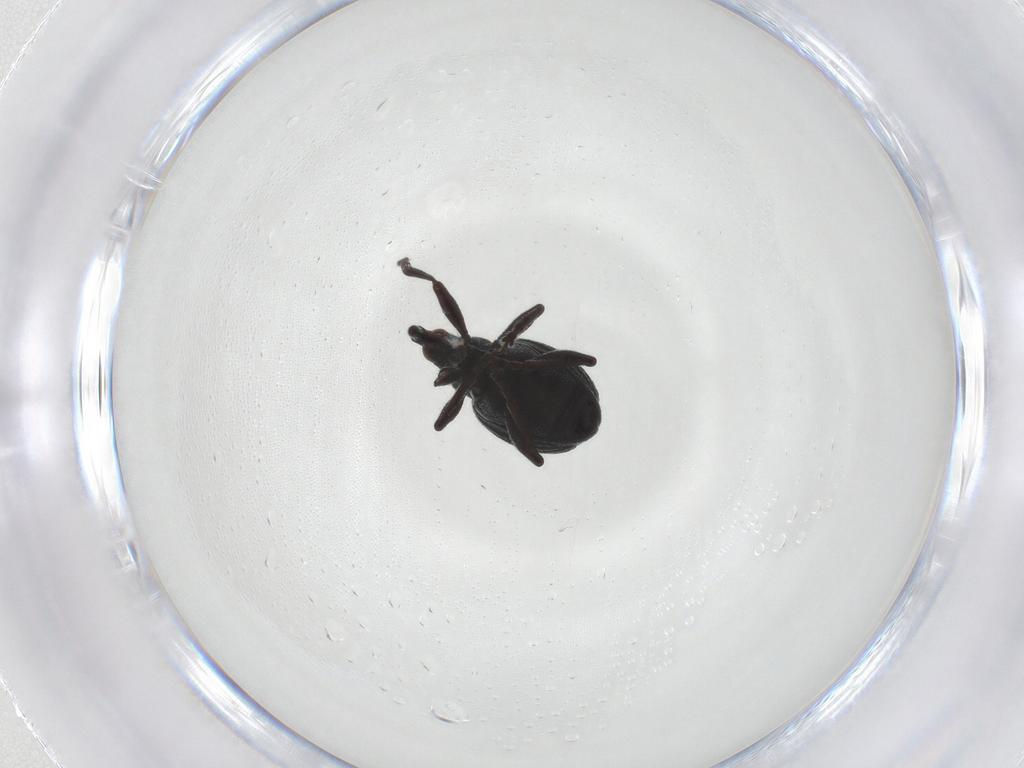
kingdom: Animalia
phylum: Arthropoda
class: Insecta
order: Coleoptera
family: Brentidae
